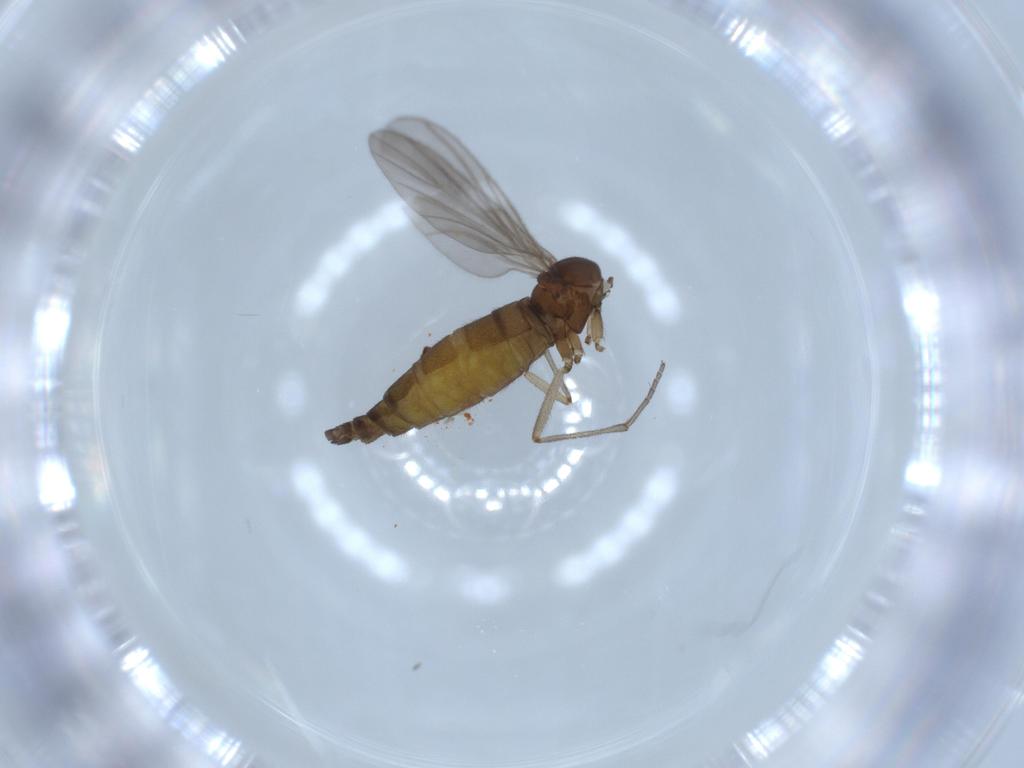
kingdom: Animalia
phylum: Arthropoda
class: Insecta
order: Diptera
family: Sciaridae
